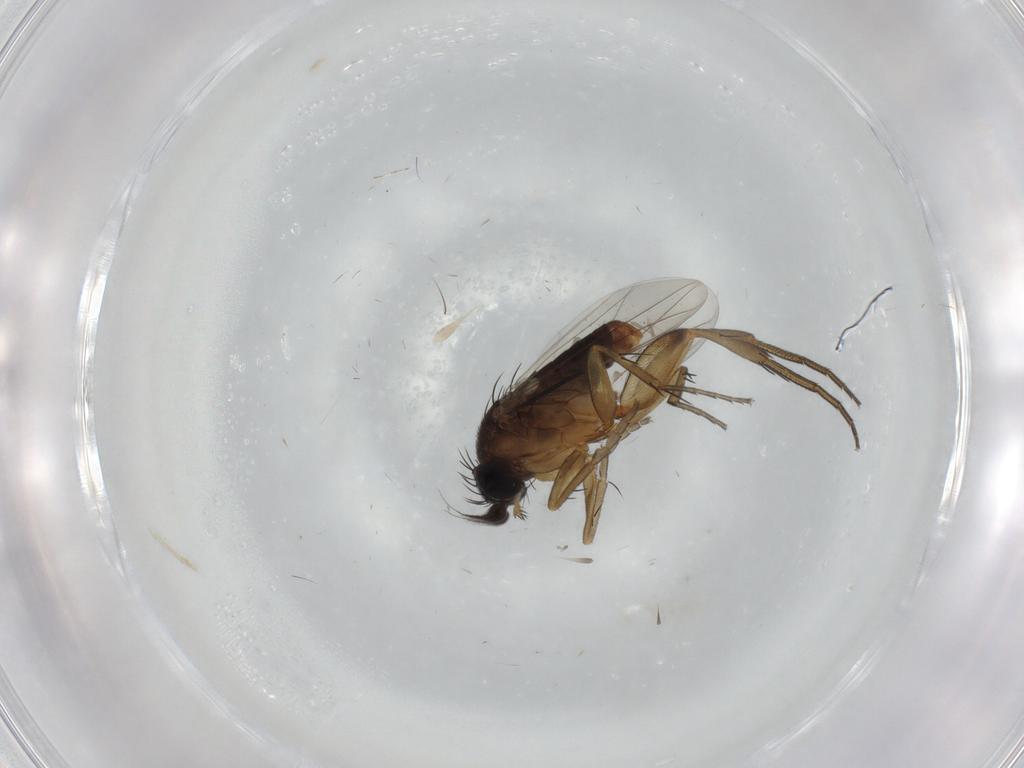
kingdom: Animalia
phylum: Arthropoda
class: Insecta
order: Diptera
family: Phoridae
